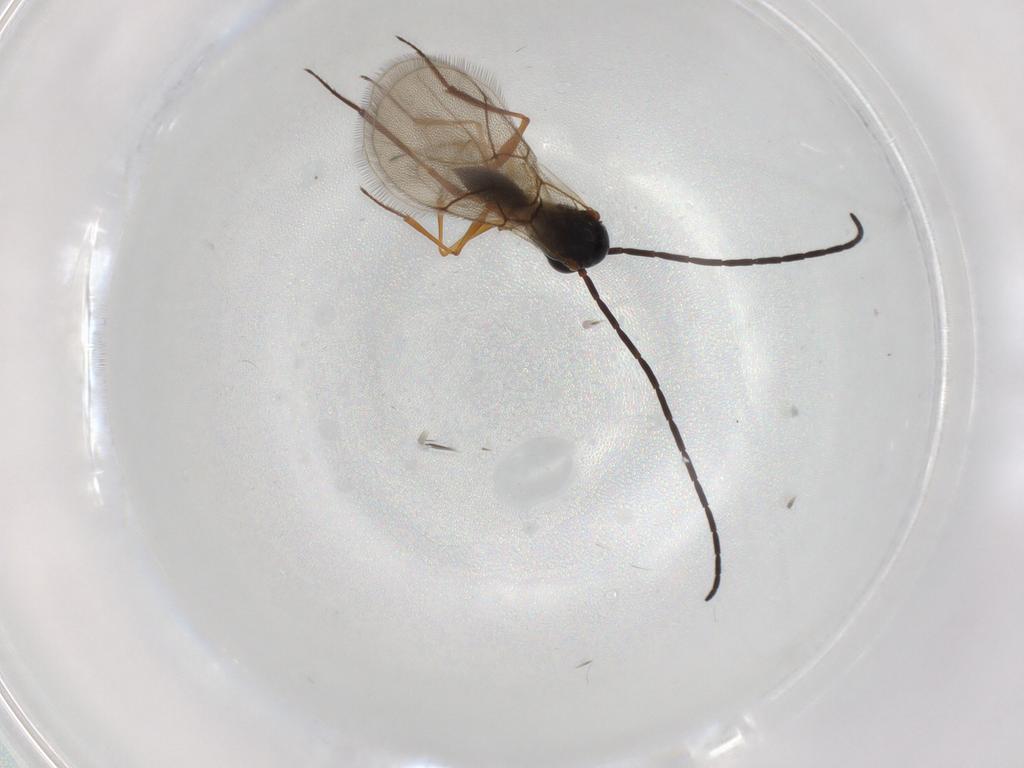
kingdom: Animalia
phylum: Arthropoda
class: Insecta
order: Hymenoptera
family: Figitidae
